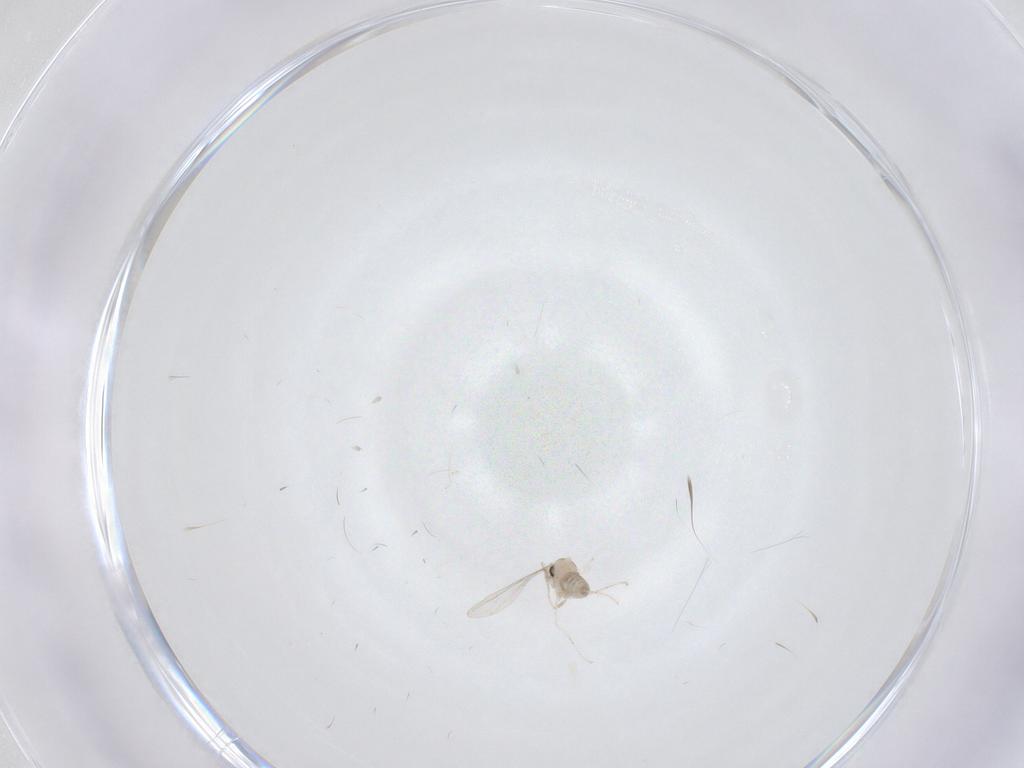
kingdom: Animalia
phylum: Arthropoda
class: Insecta
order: Diptera
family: Cecidomyiidae
